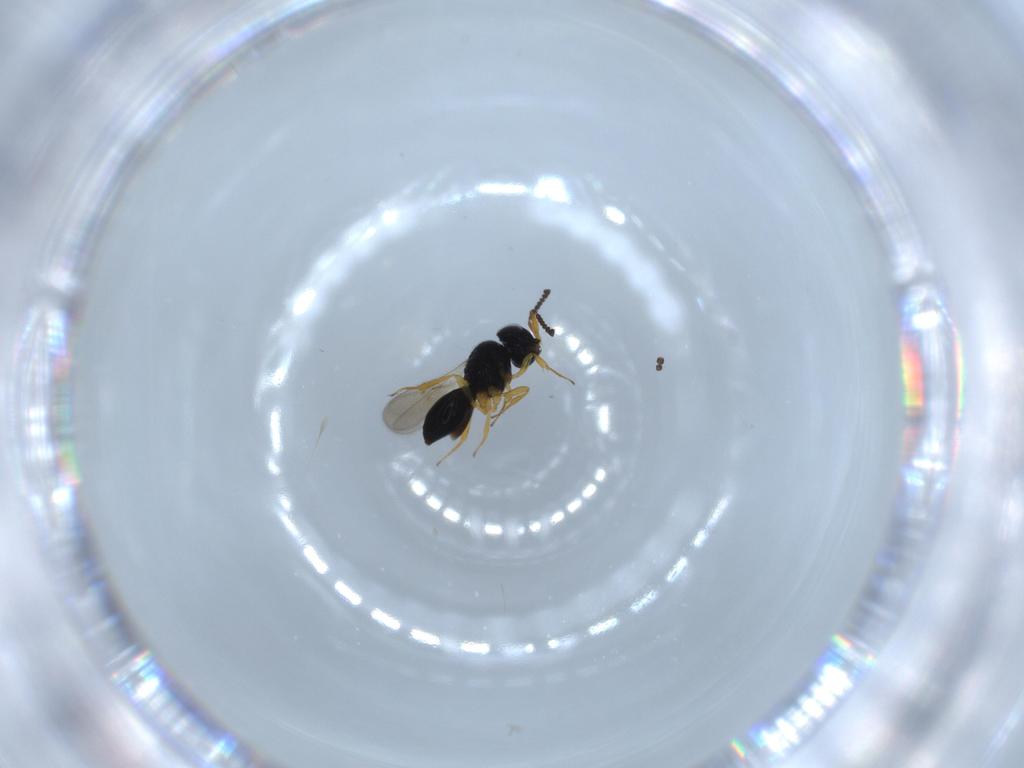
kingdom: Animalia
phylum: Arthropoda
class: Insecta
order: Hymenoptera
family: Scelionidae
